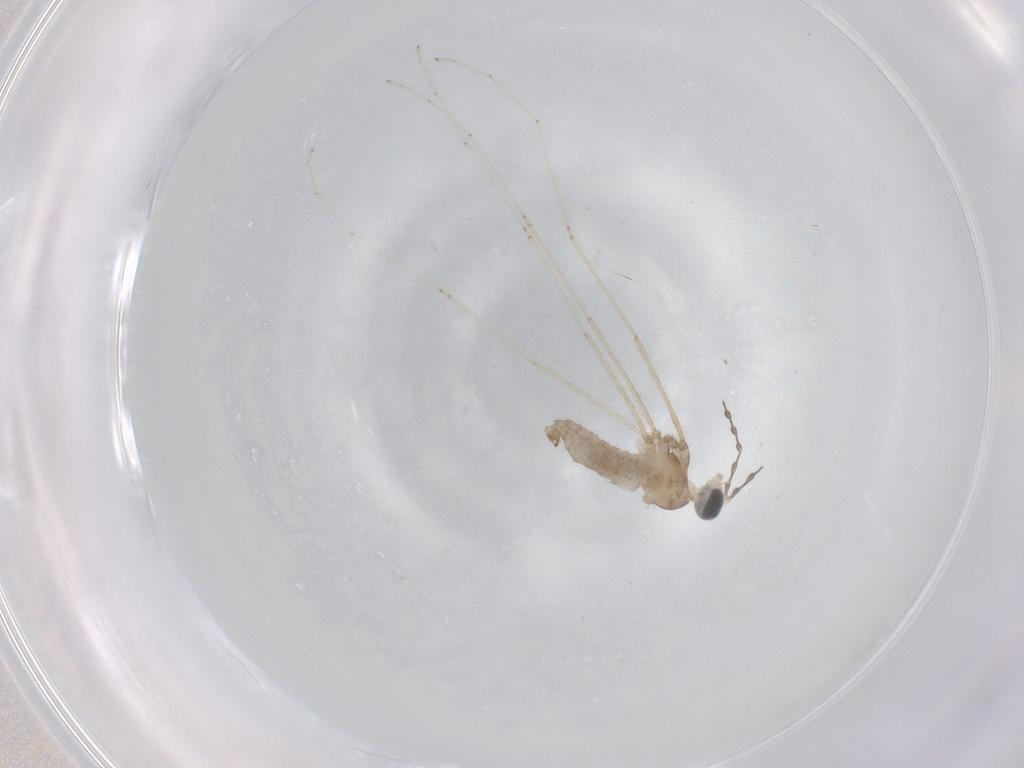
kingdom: Animalia
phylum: Arthropoda
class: Insecta
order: Diptera
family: Cecidomyiidae
